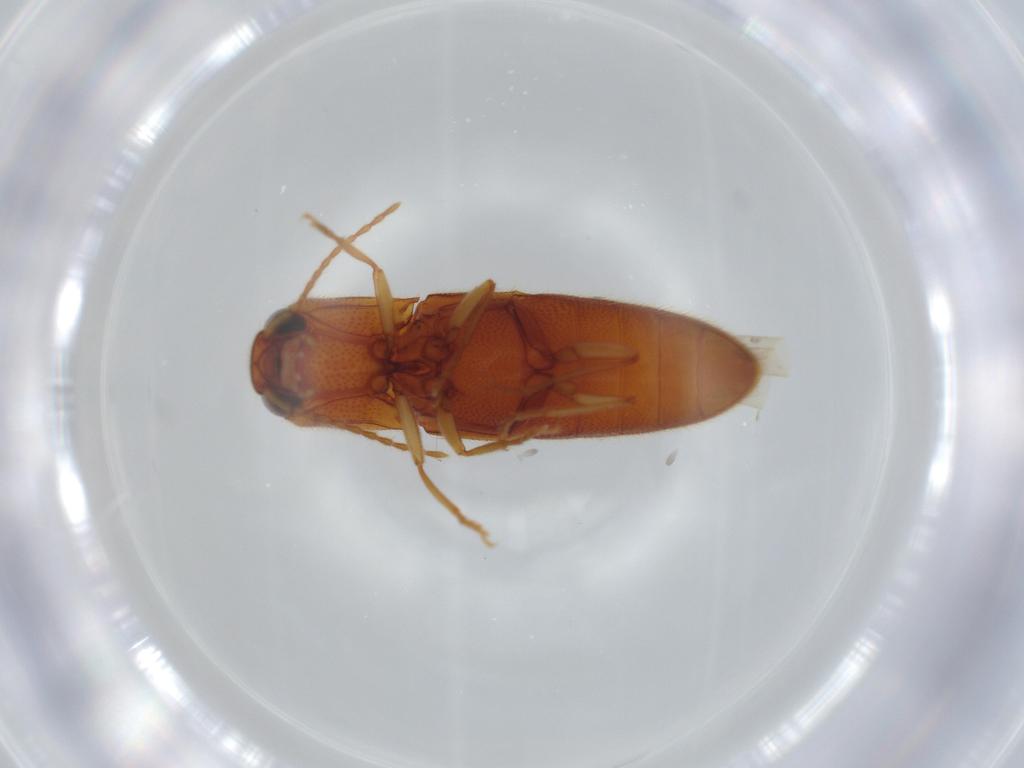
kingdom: Animalia
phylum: Arthropoda
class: Insecta
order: Coleoptera
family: Elateridae
